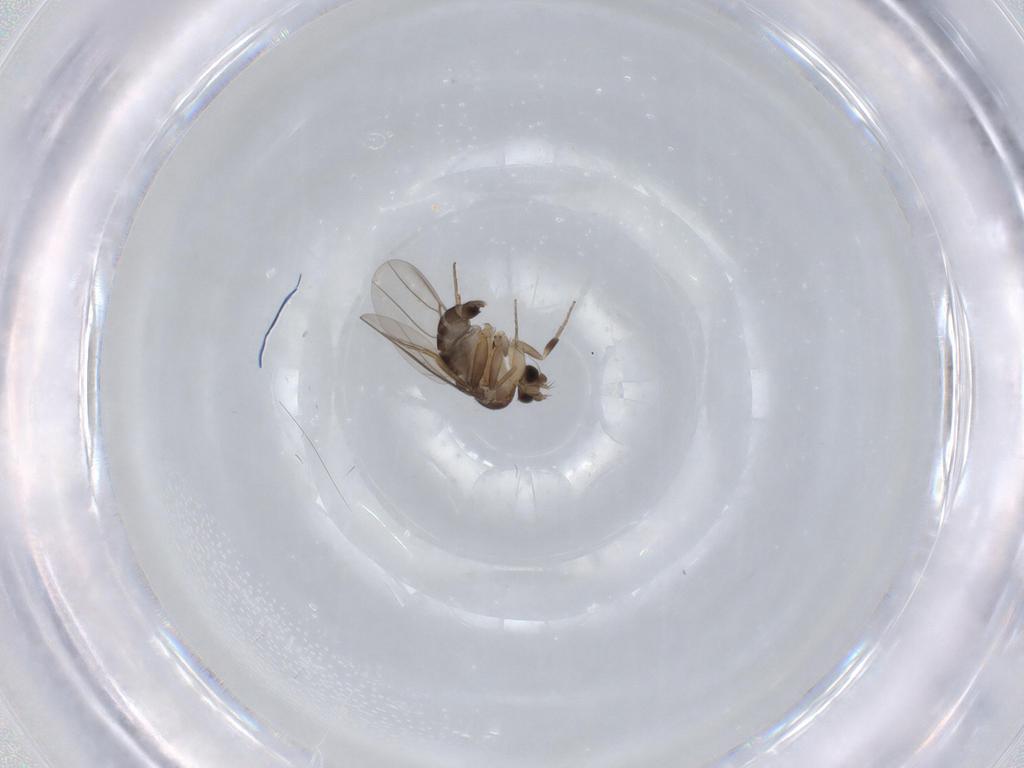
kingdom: Animalia
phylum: Arthropoda
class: Insecta
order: Diptera
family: Phoridae
